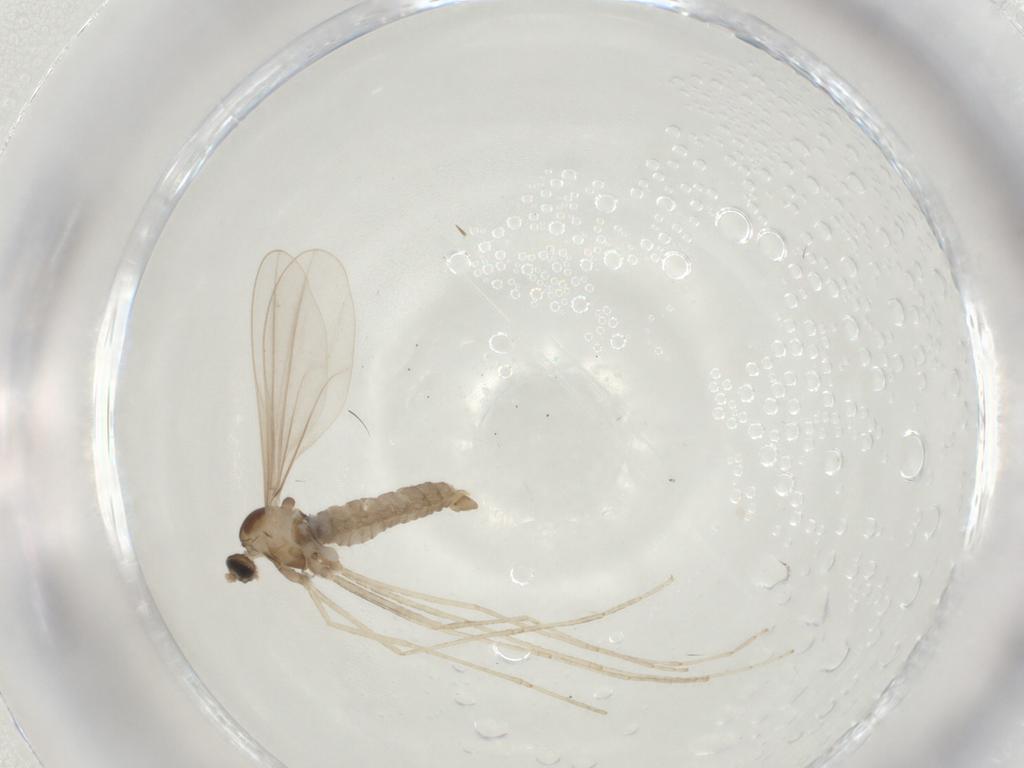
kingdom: Animalia
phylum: Arthropoda
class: Insecta
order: Diptera
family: Cecidomyiidae
